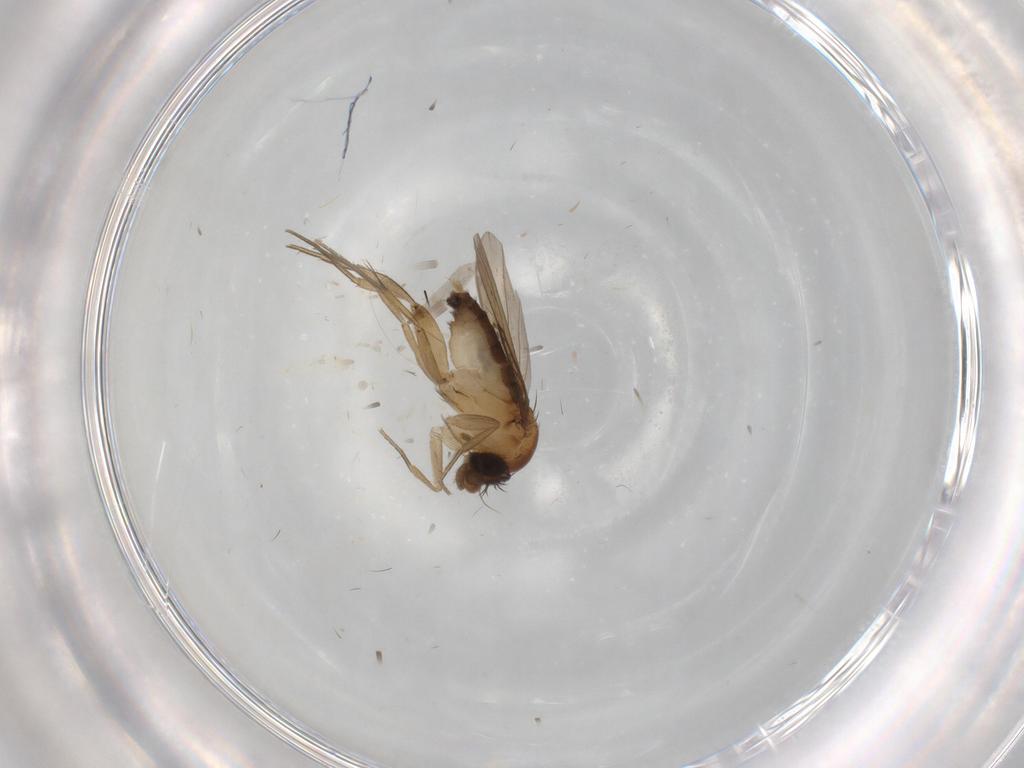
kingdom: Animalia
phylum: Arthropoda
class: Insecta
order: Diptera
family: Phoridae
